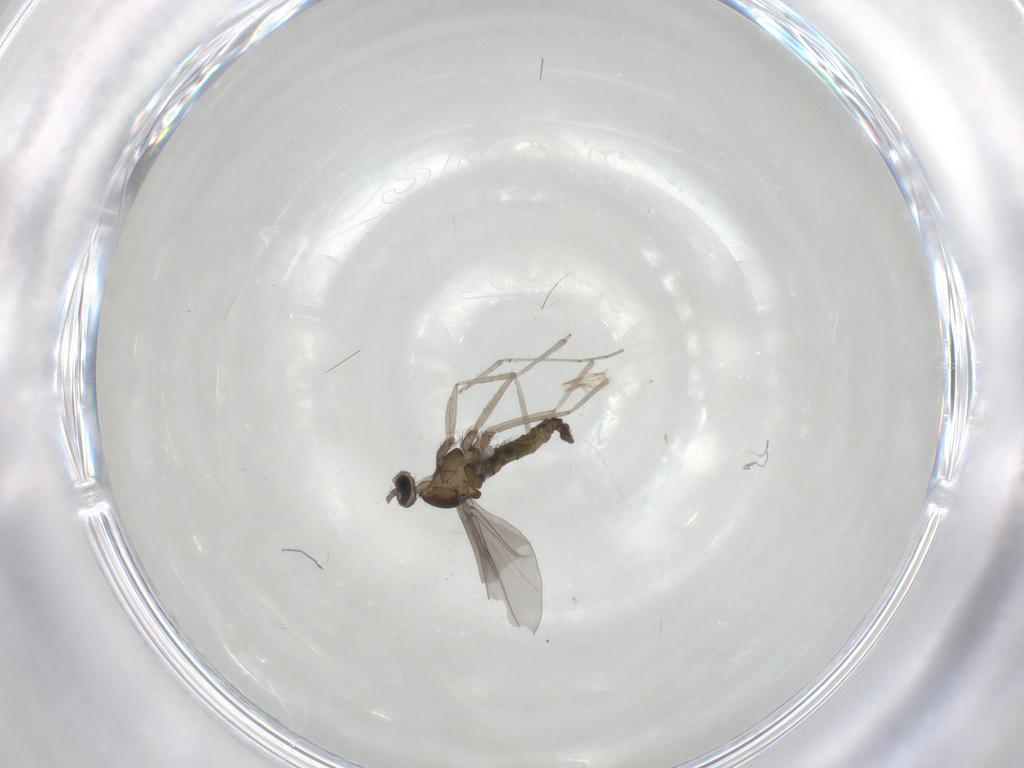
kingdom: Animalia
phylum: Arthropoda
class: Insecta
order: Diptera
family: Cecidomyiidae
